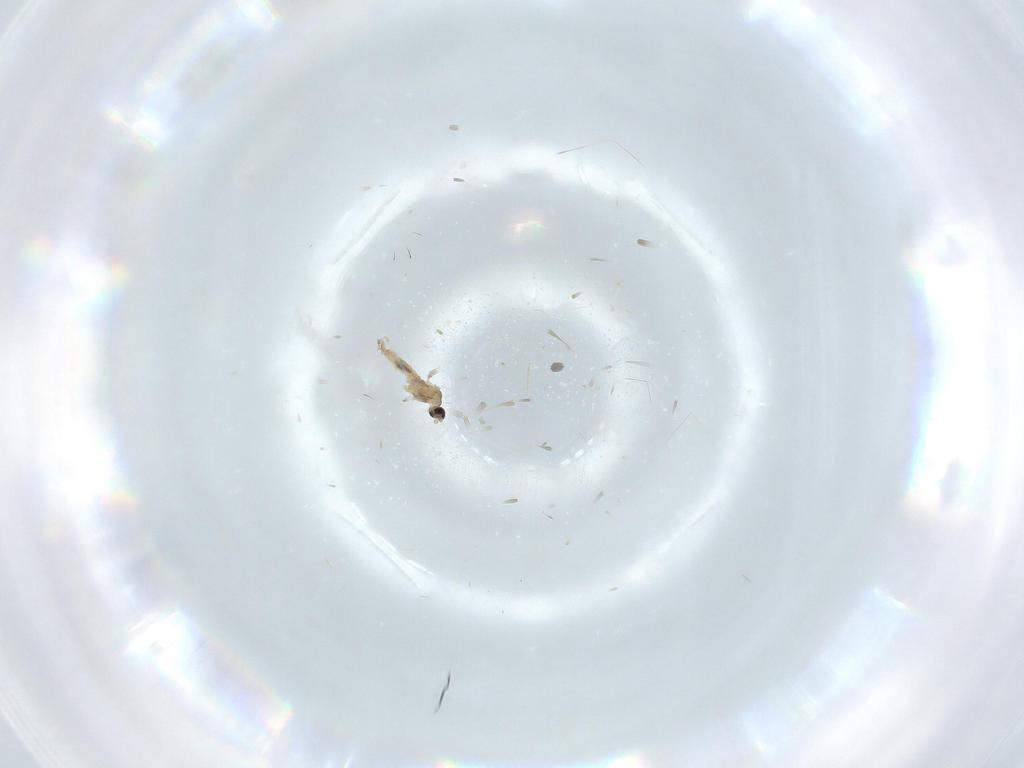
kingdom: Animalia
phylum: Arthropoda
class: Insecta
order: Diptera
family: Cecidomyiidae
